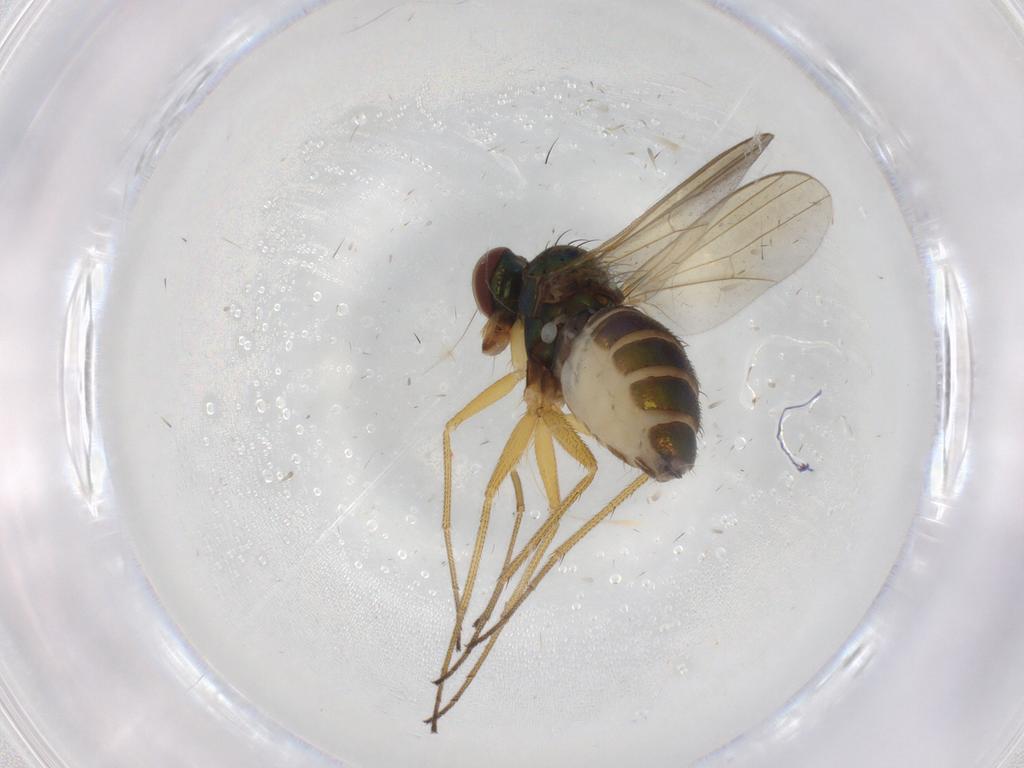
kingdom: Animalia
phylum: Arthropoda
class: Insecta
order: Diptera
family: Dolichopodidae
